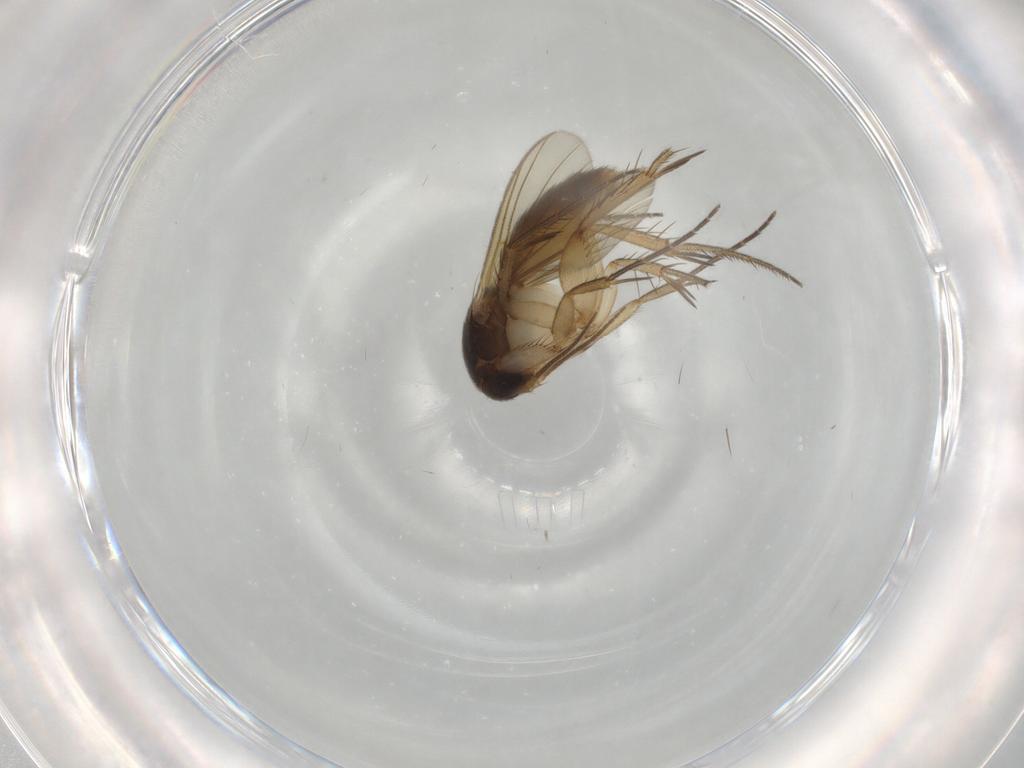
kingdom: Animalia
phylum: Arthropoda
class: Insecta
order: Diptera
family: Mycetophilidae
